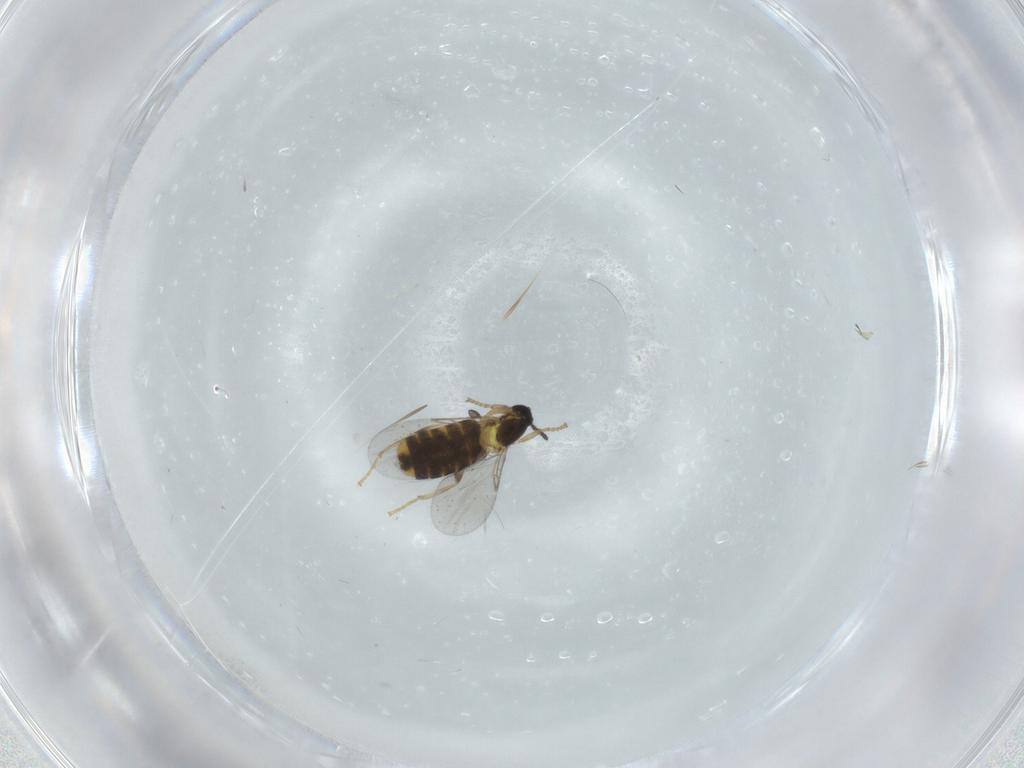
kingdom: Animalia
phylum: Arthropoda
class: Insecta
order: Diptera
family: Scatopsidae
